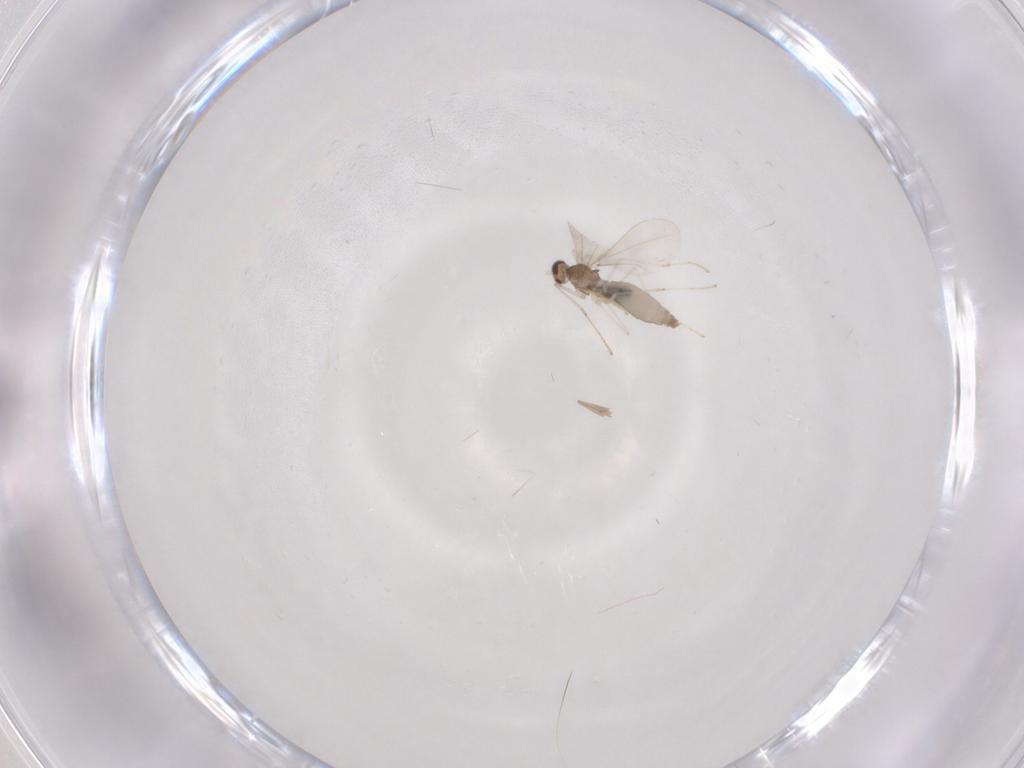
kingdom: Animalia
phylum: Arthropoda
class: Insecta
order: Diptera
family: Cecidomyiidae
